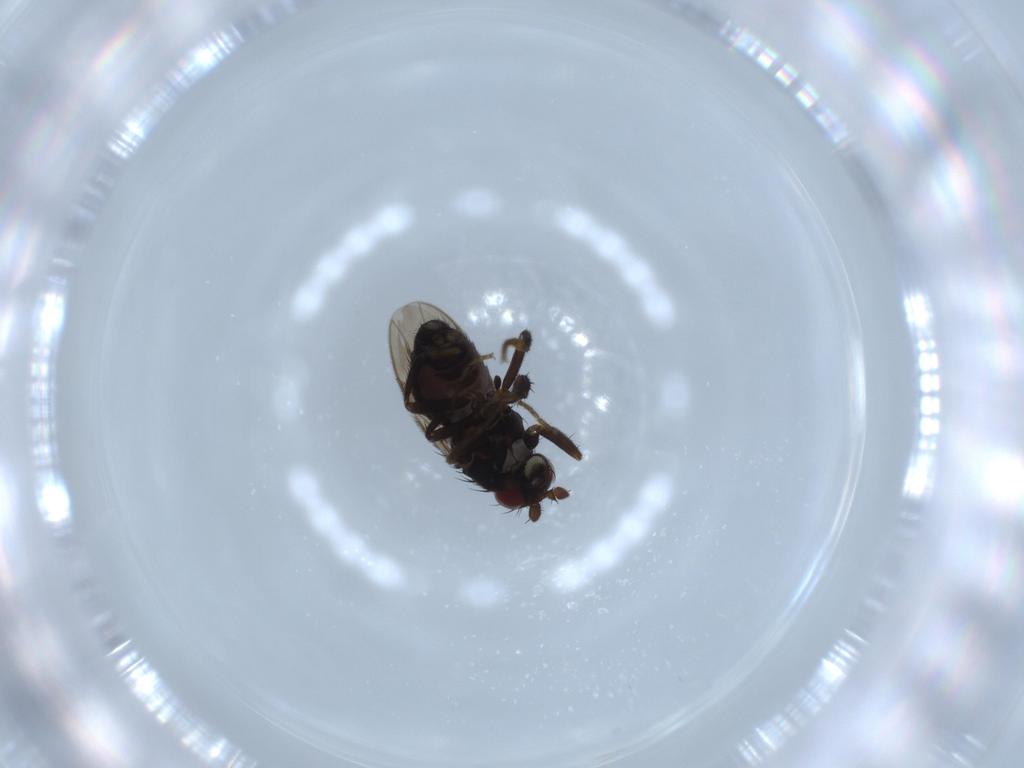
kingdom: Animalia
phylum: Arthropoda
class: Insecta
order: Diptera
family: Sphaeroceridae
